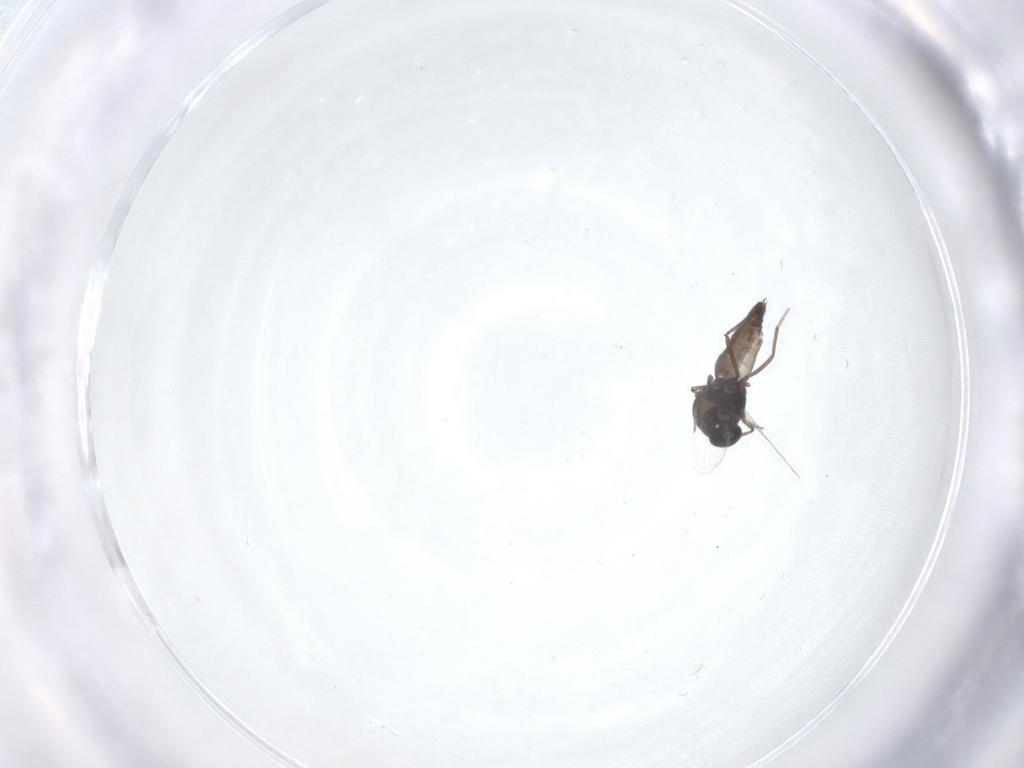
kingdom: Animalia
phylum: Arthropoda
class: Insecta
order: Diptera
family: Ceratopogonidae
